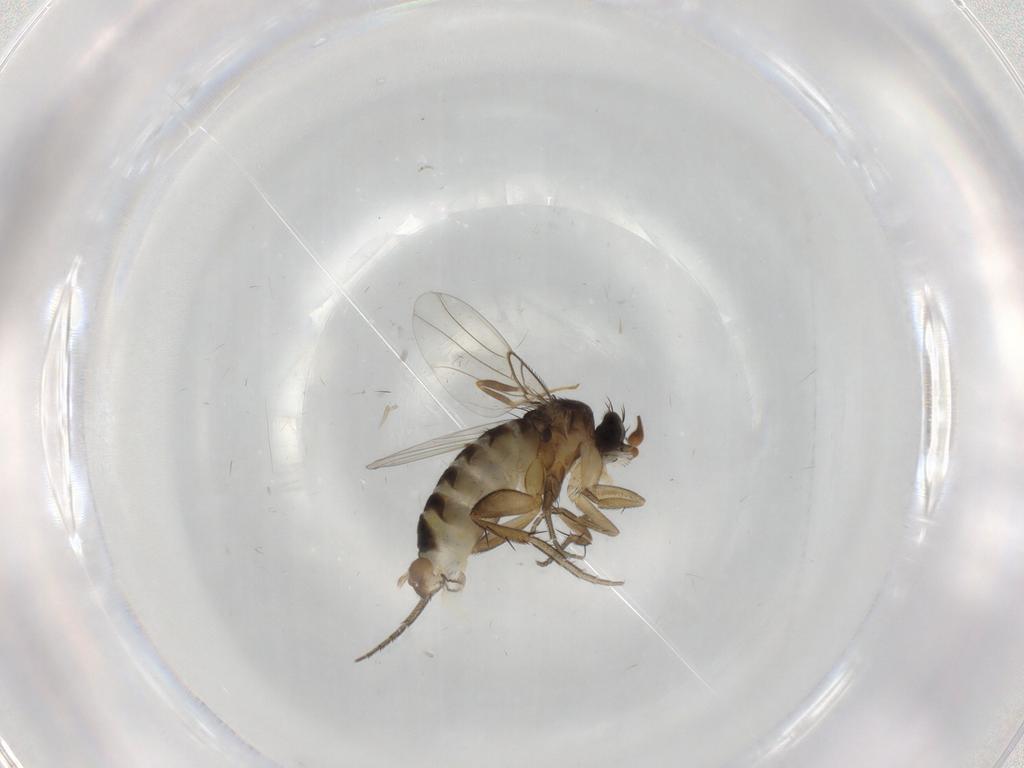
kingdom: Animalia
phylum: Arthropoda
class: Insecta
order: Diptera
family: Phoridae
